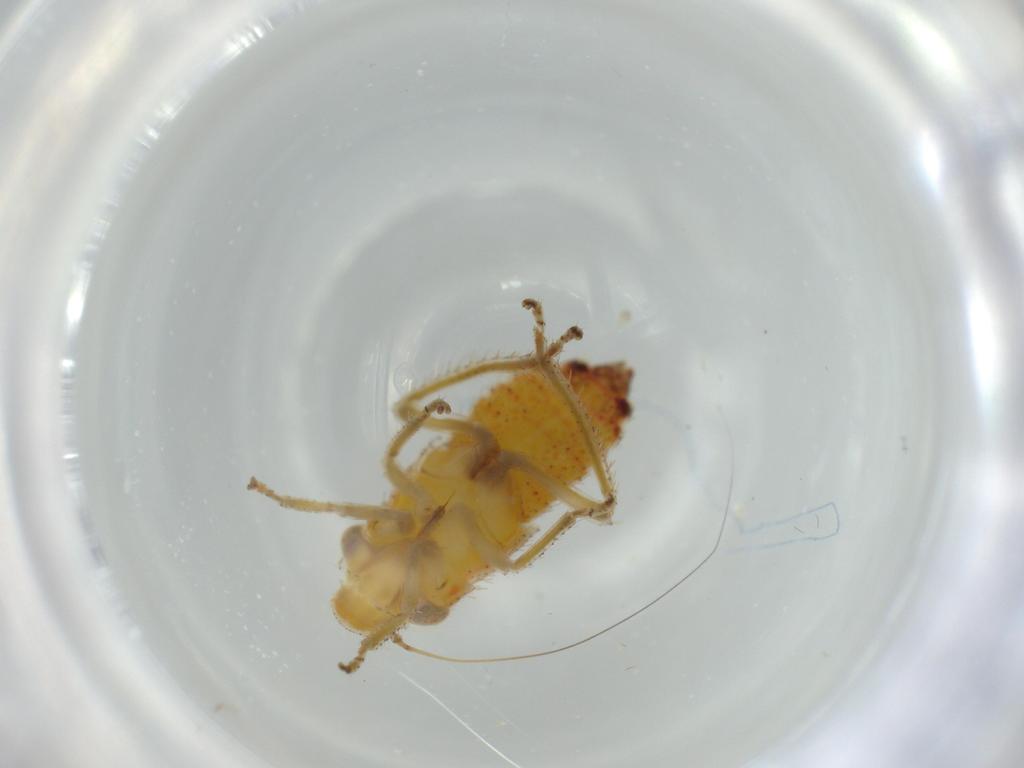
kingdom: Animalia
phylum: Arthropoda
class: Insecta
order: Hemiptera
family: Cicadellidae
